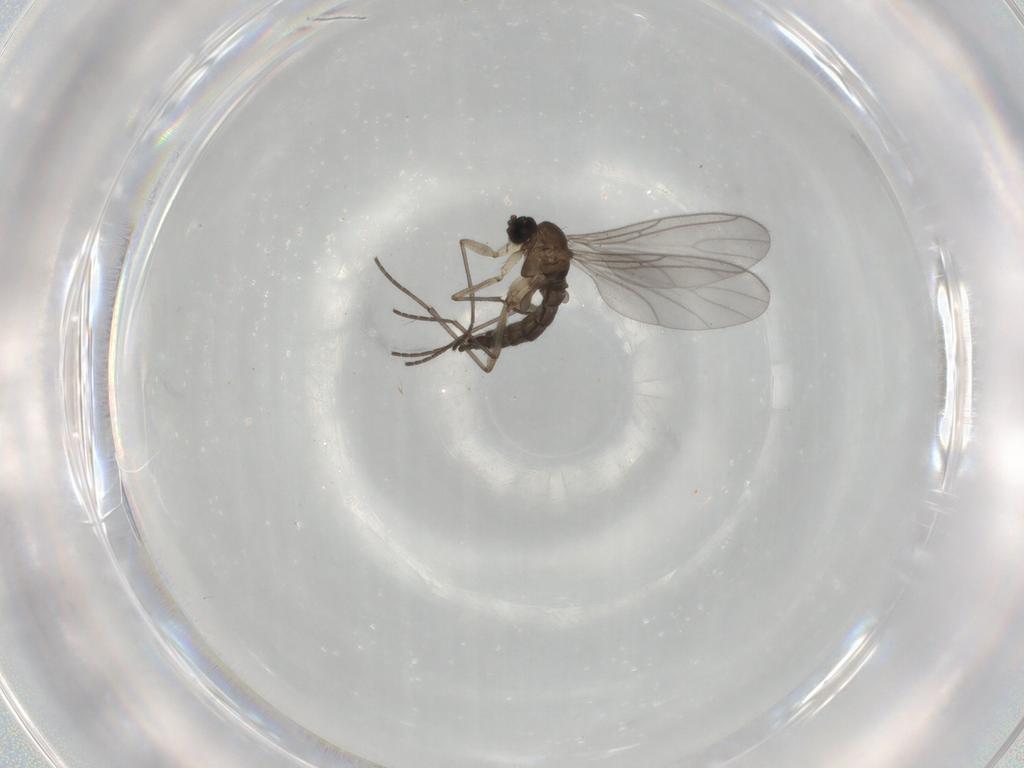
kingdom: Animalia
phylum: Arthropoda
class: Insecta
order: Diptera
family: Sciaridae
